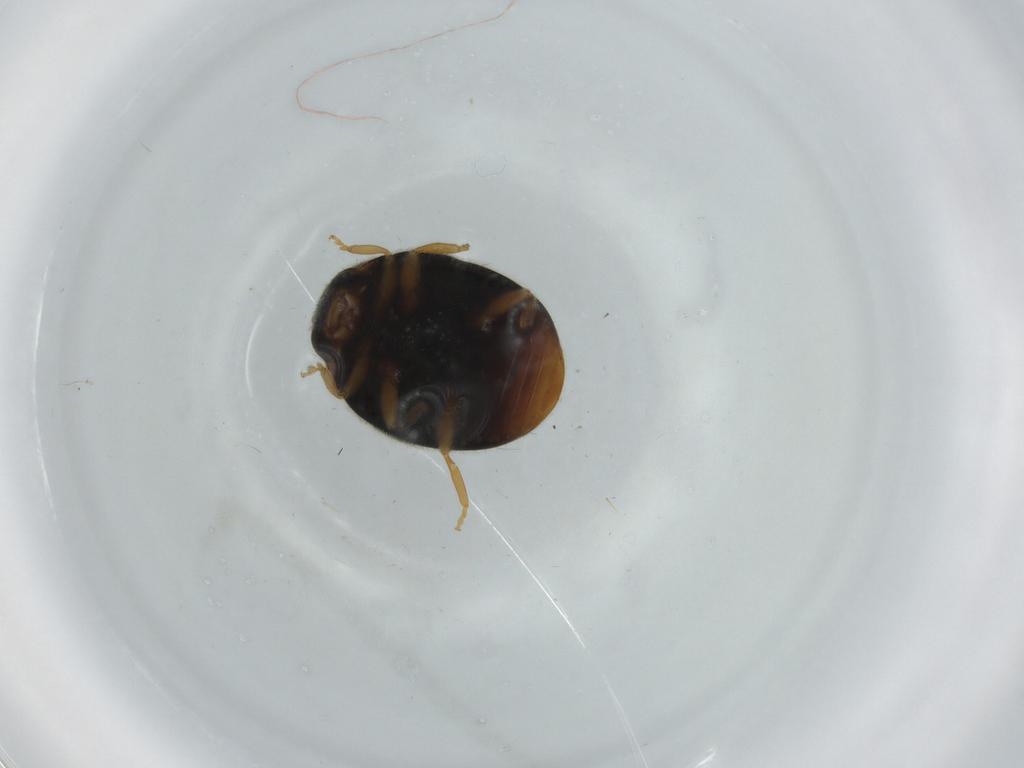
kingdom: Animalia
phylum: Arthropoda
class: Insecta
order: Coleoptera
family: Coccinellidae
